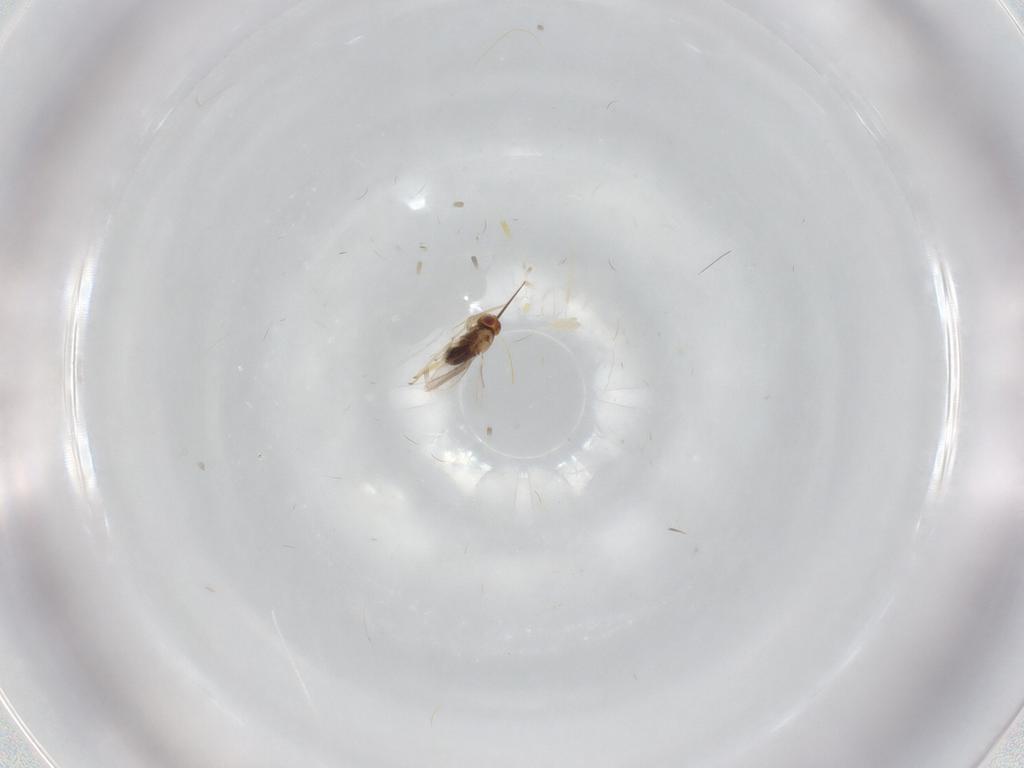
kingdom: Animalia
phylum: Arthropoda
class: Insecta
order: Hymenoptera
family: Aphelinidae
